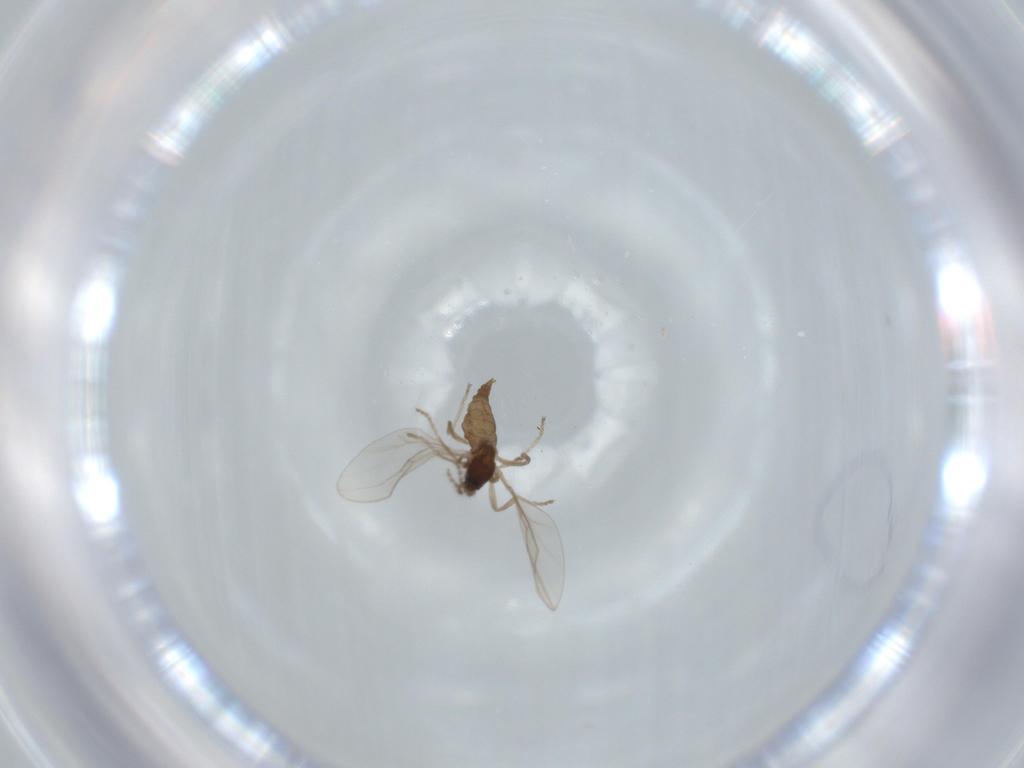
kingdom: Animalia
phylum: Arthropoda
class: Insecta
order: Diptera
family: Cecidomyiidae
